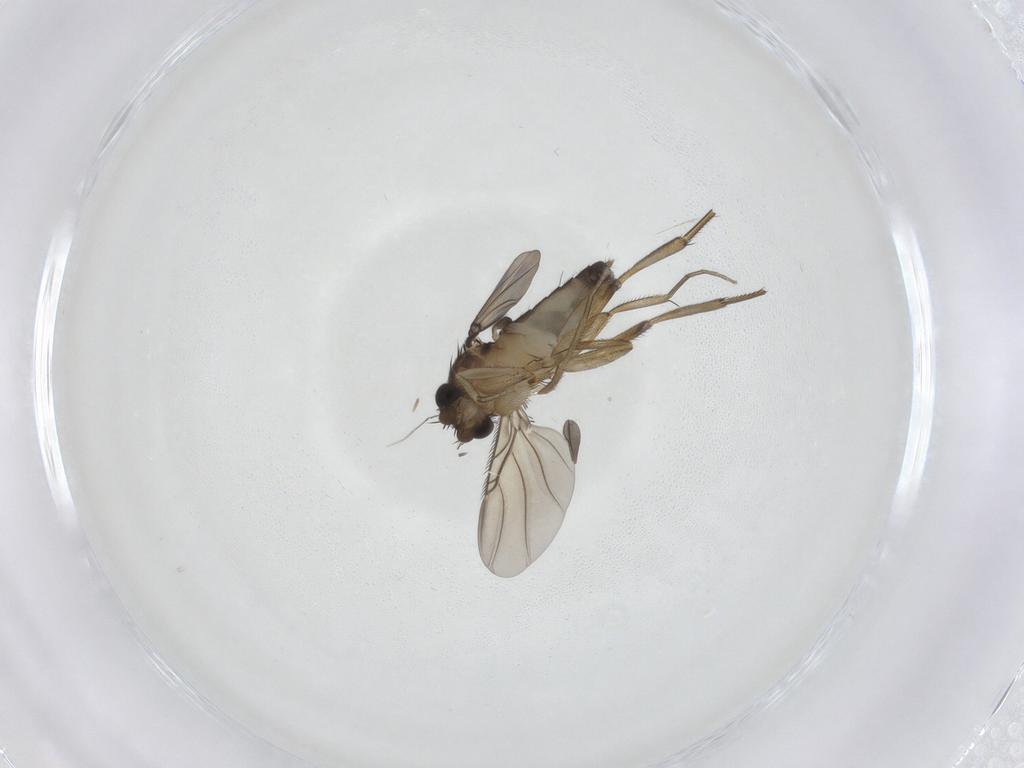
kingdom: Animalia
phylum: Arthropoda
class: Insecta
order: Diptera
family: Phoridae
